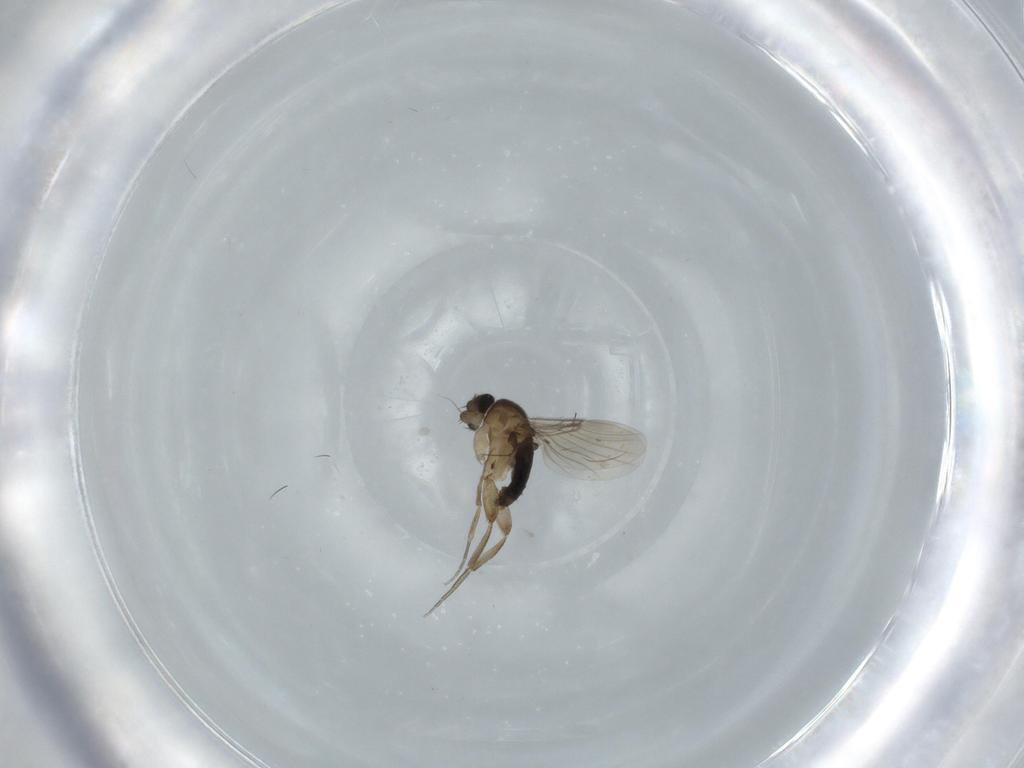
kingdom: Animalia
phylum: Arthropoda
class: Insecta
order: Diptera
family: Phoridae
